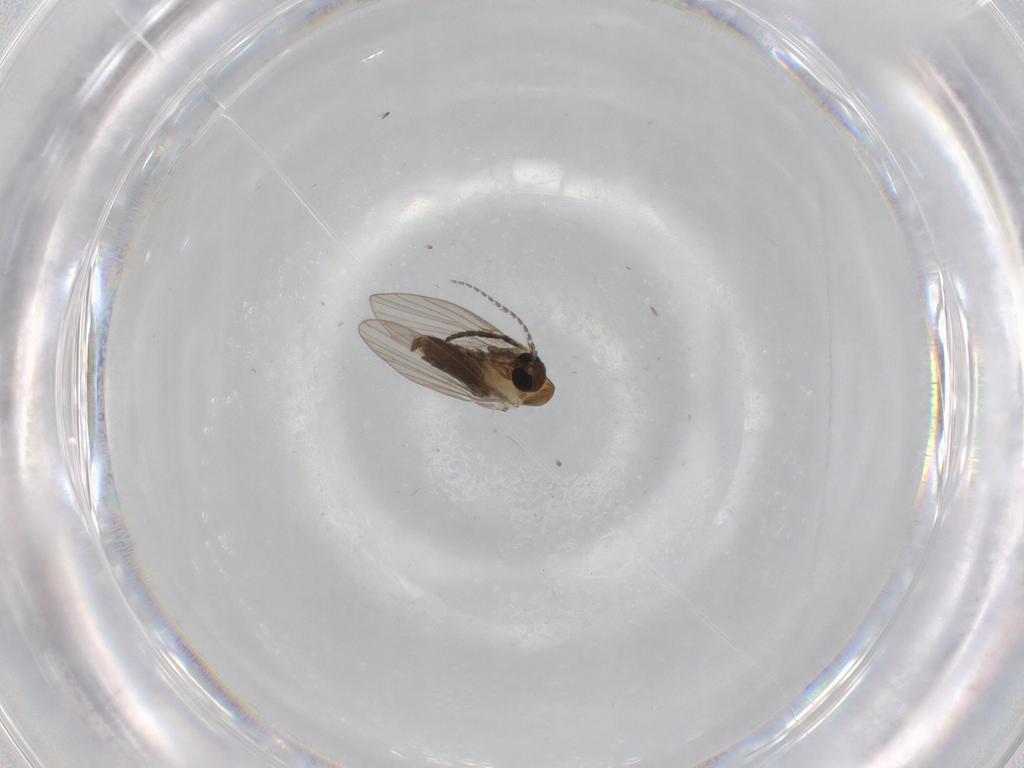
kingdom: Animalia
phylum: Arthropoda
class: Insecta
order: Diptera
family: Psychodidae
